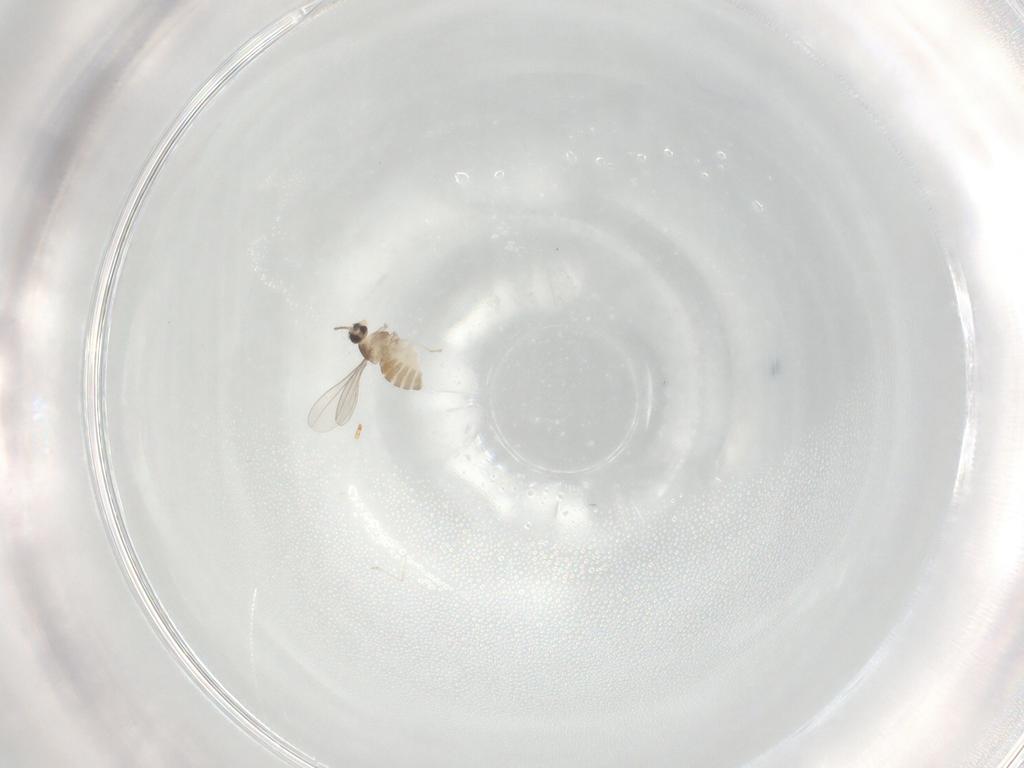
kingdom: Animalia
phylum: Arthropoda
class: Insecta
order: Diptera
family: Cecidomyiidae
